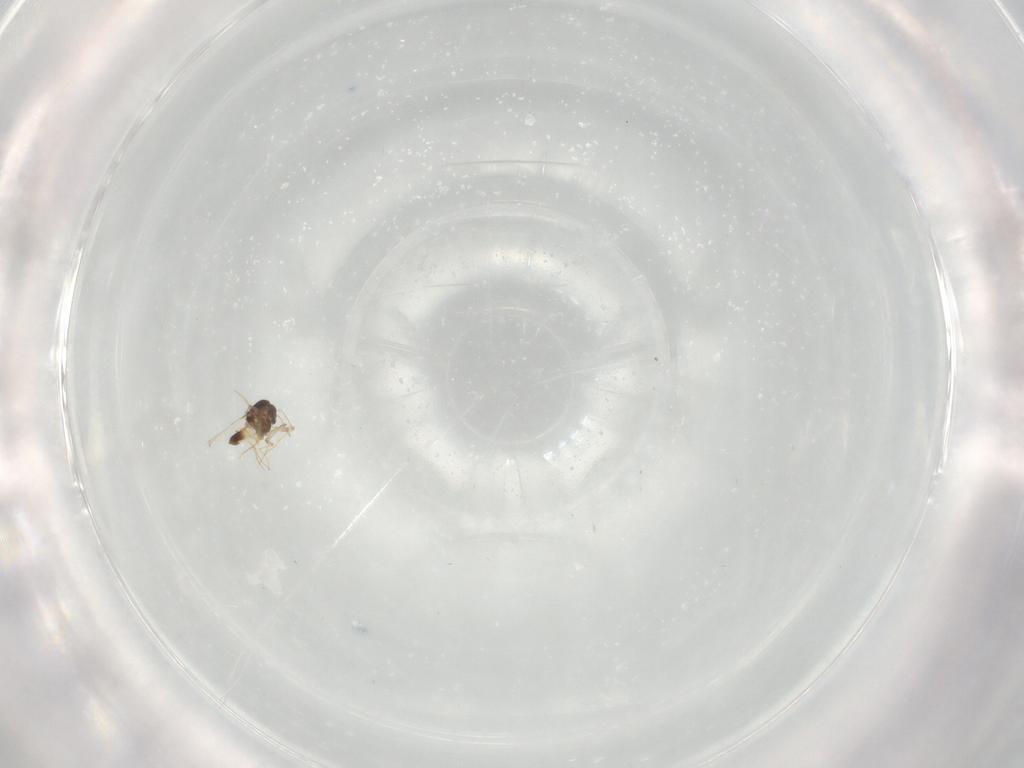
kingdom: Animalia
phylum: Arthropoda
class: Insecta
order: Diptera
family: Chironomidae
